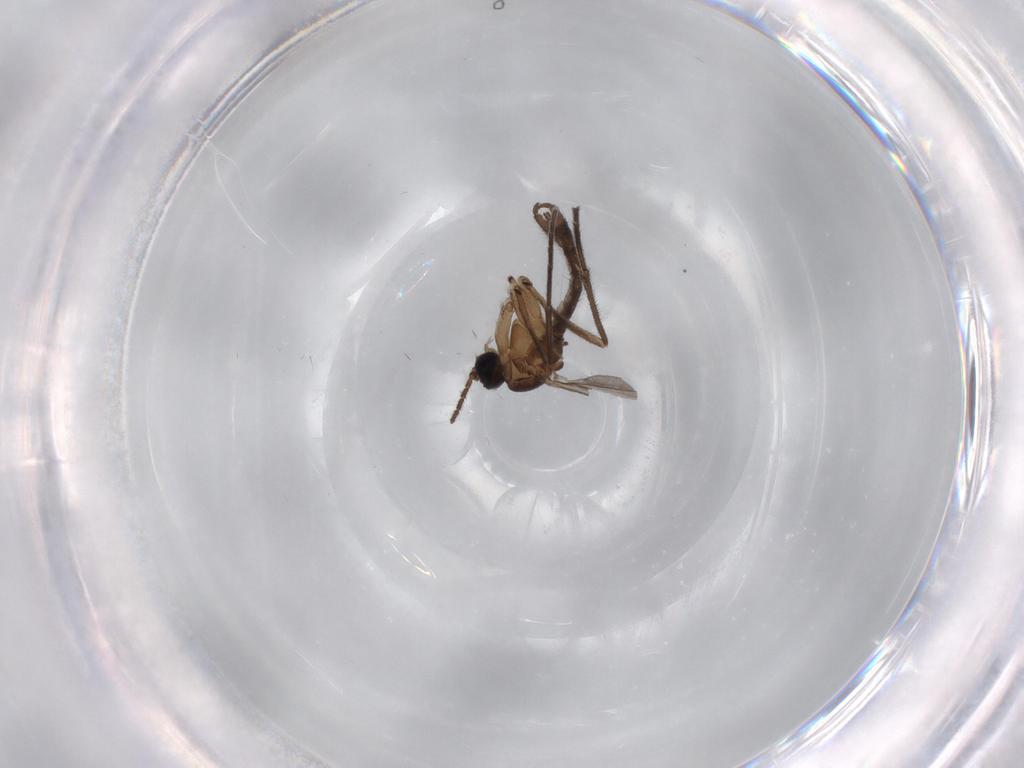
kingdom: Animalia
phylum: Arthropoda
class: Insecta
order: Diptera
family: Sciaridae
